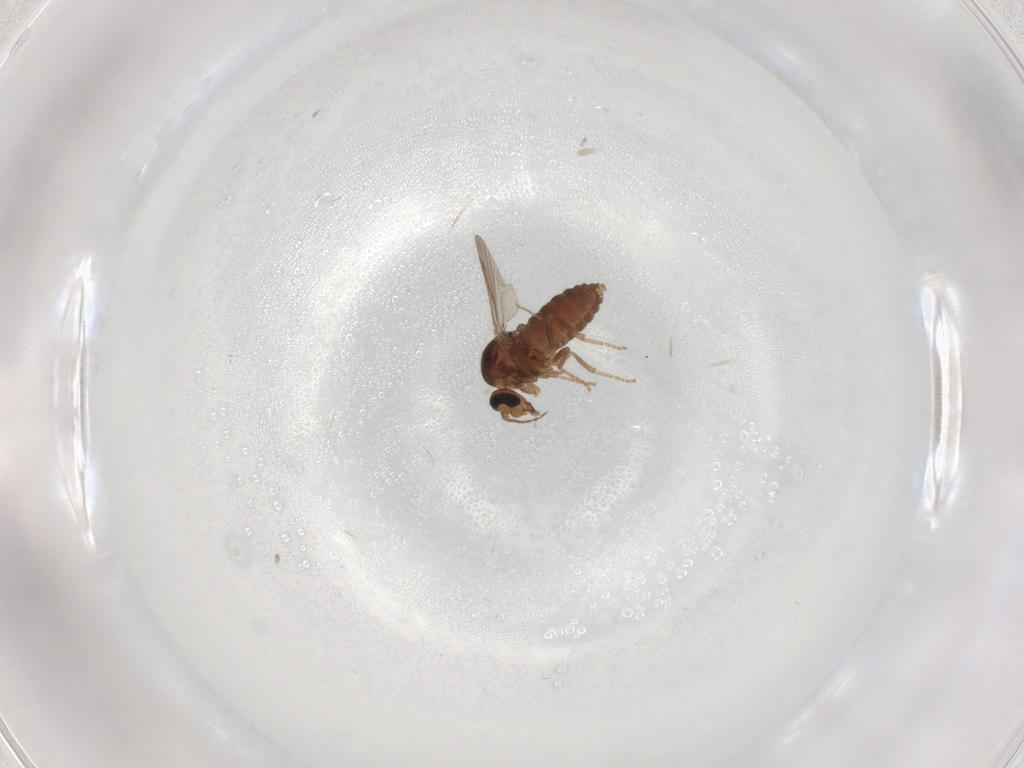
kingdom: Animalia
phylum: Arthropoda
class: Insecta
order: Diptera
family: Ceratopogonidae
